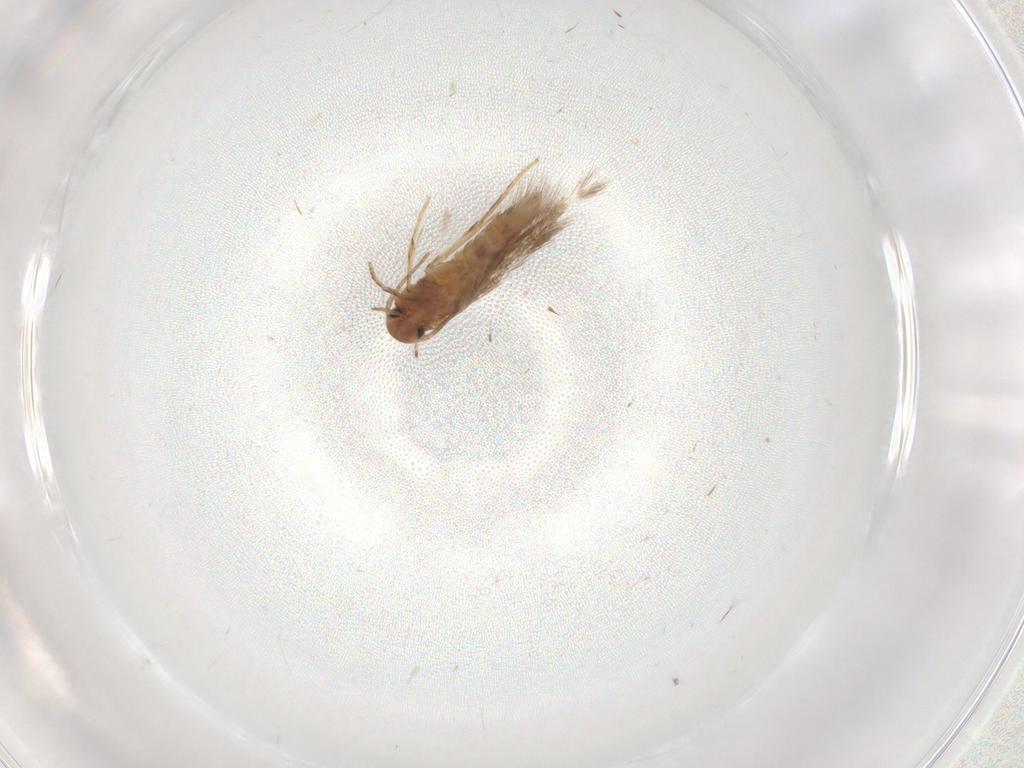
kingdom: Animalia
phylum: Arthropoda
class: Insecta
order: Lepidoptera
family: Elachistidae
